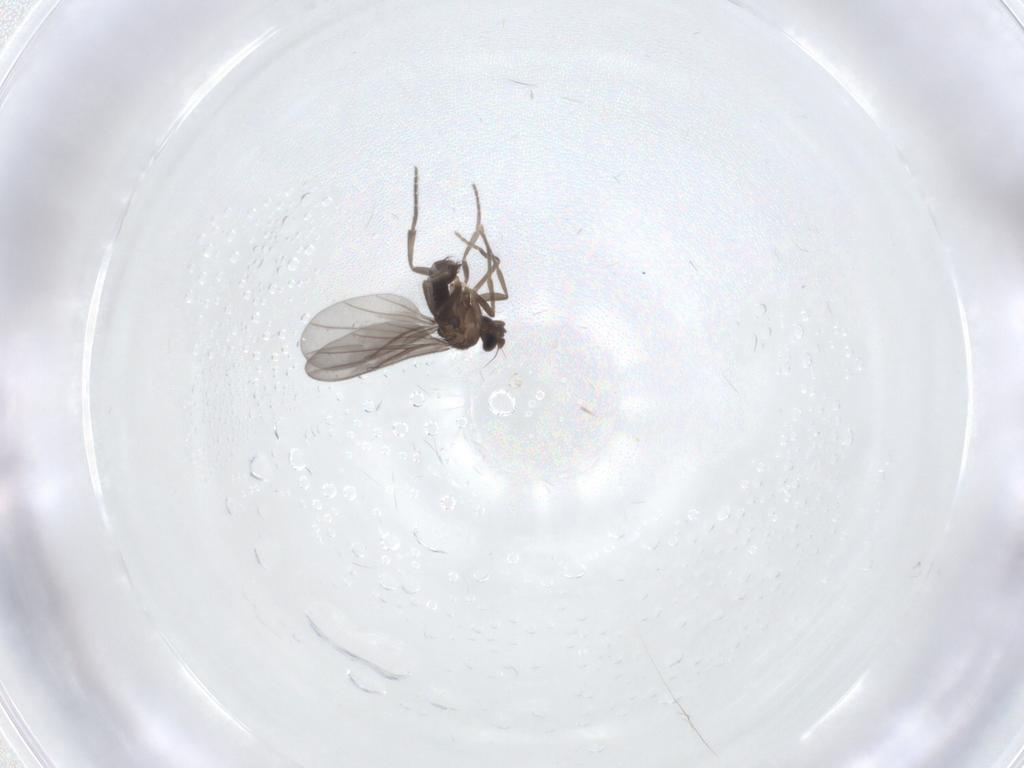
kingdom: Animalia
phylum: Arthropoda
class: Insecta
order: Diptera
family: Phoridae
